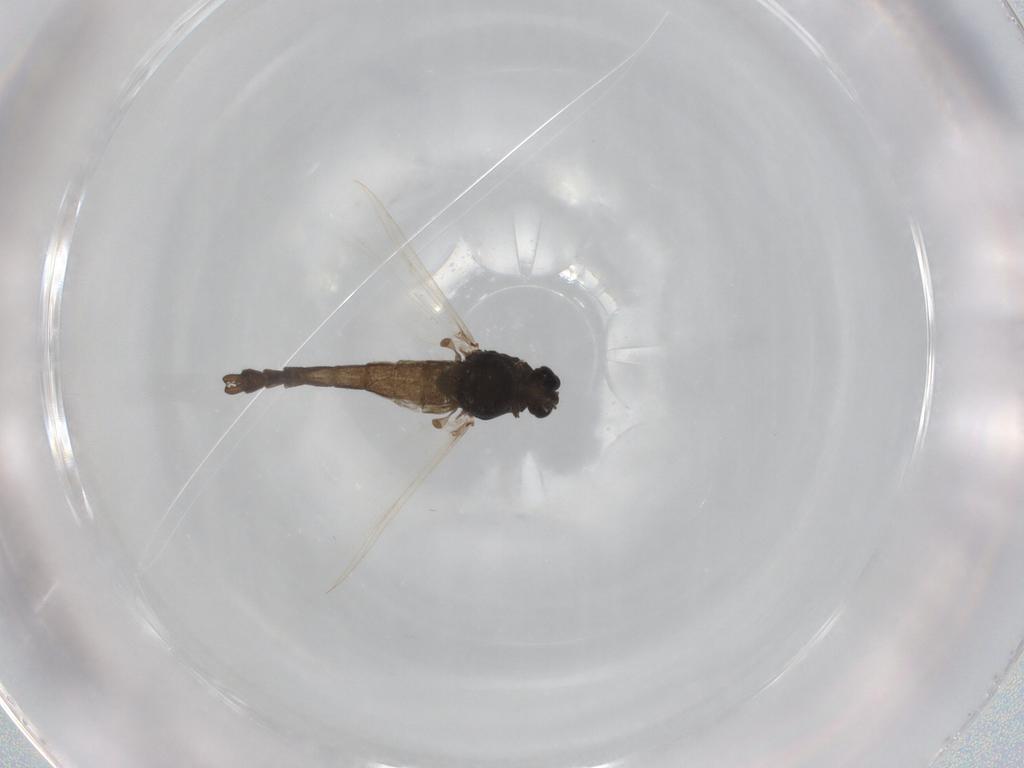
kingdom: Animalia
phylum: Arthropoda
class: Insecta
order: Diptera
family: Chironomidae
